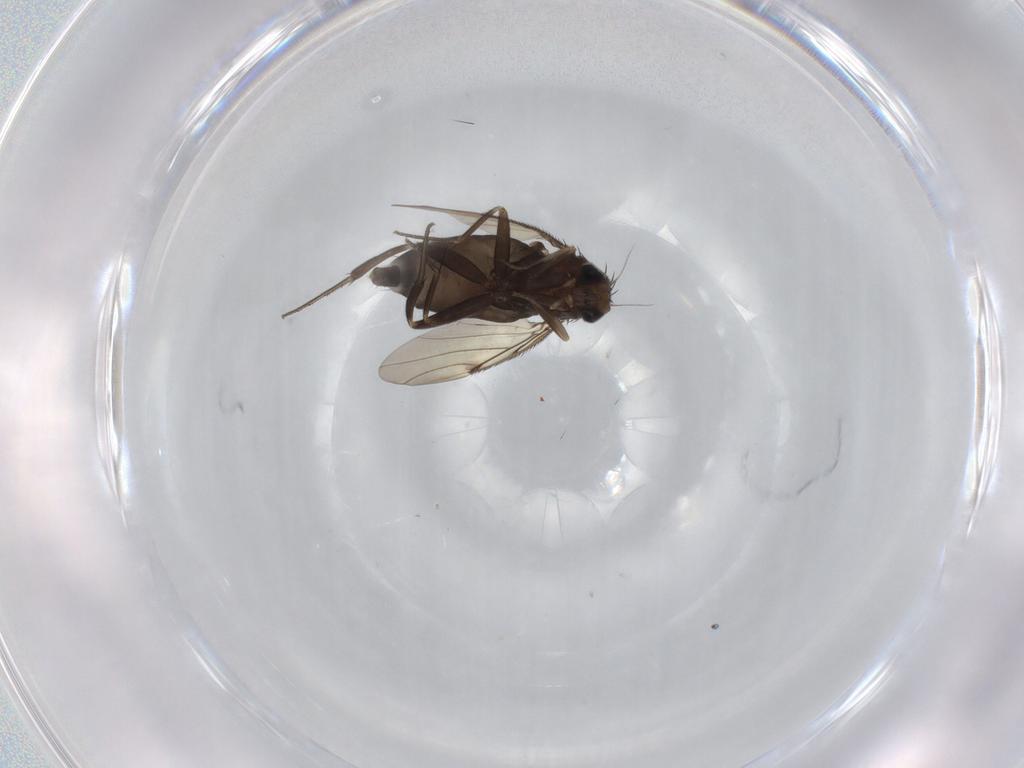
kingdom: Animalia
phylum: Arthropoda
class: Insecta
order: Diptera
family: Phoridae
